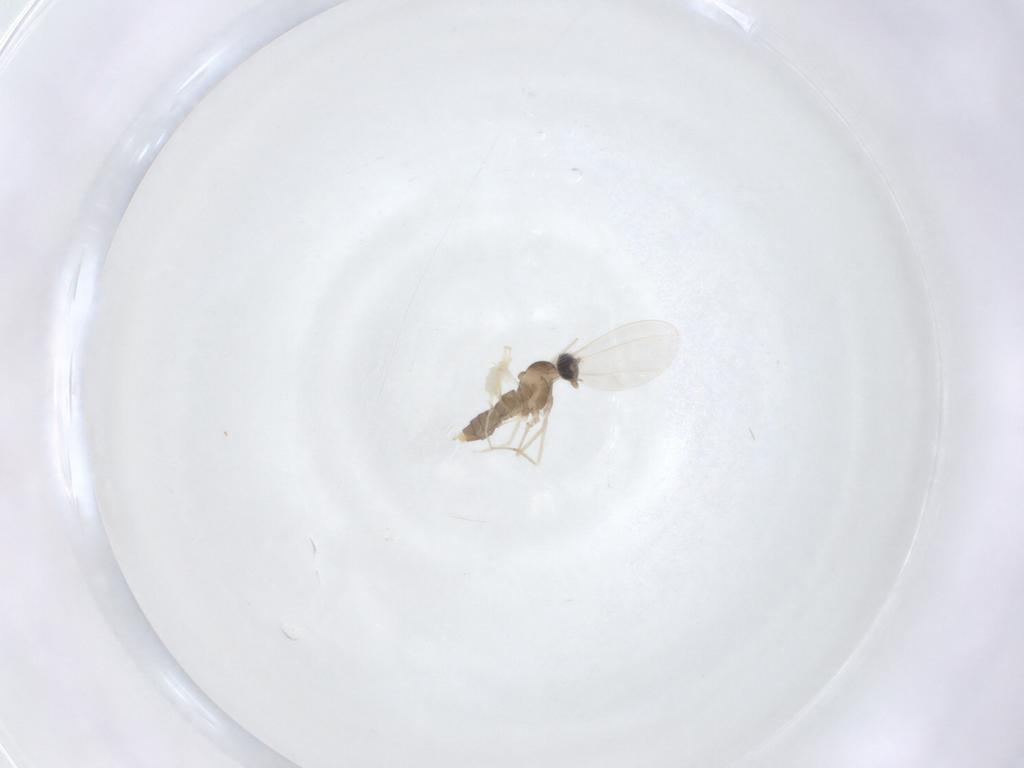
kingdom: Animalia
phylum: Arthropoda
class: Insecta
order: Diptera
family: Cecidomyiidae
